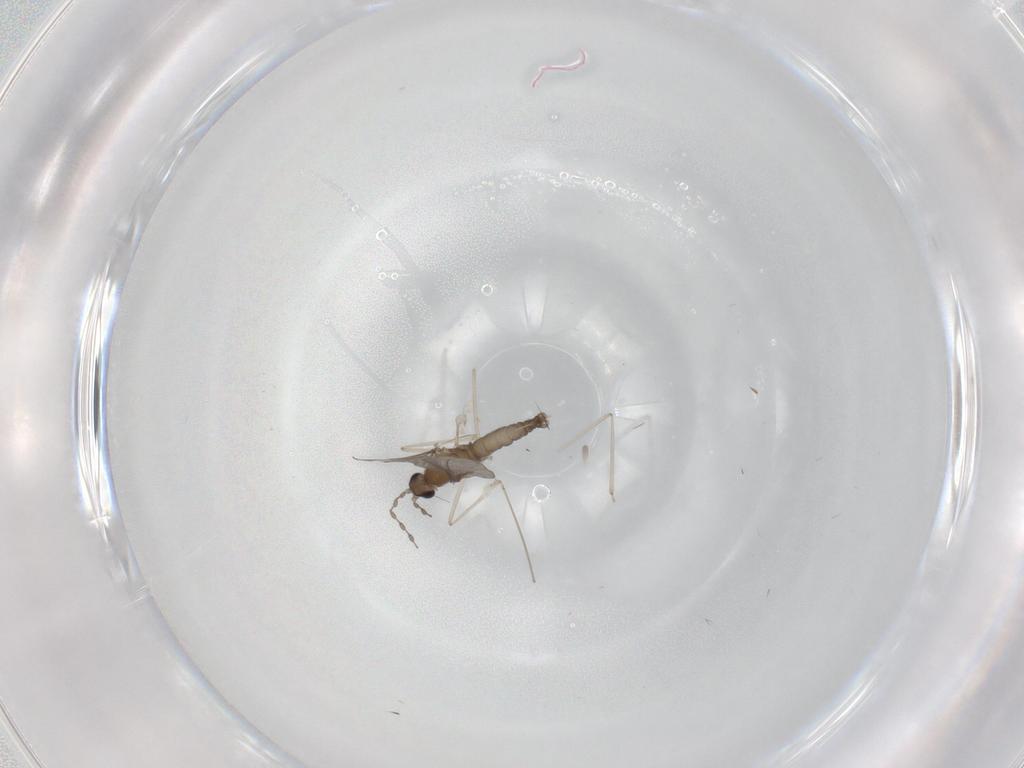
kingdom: Animalia
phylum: Arthropoda
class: Insecta
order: Diptera
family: Cecidomyiidae
